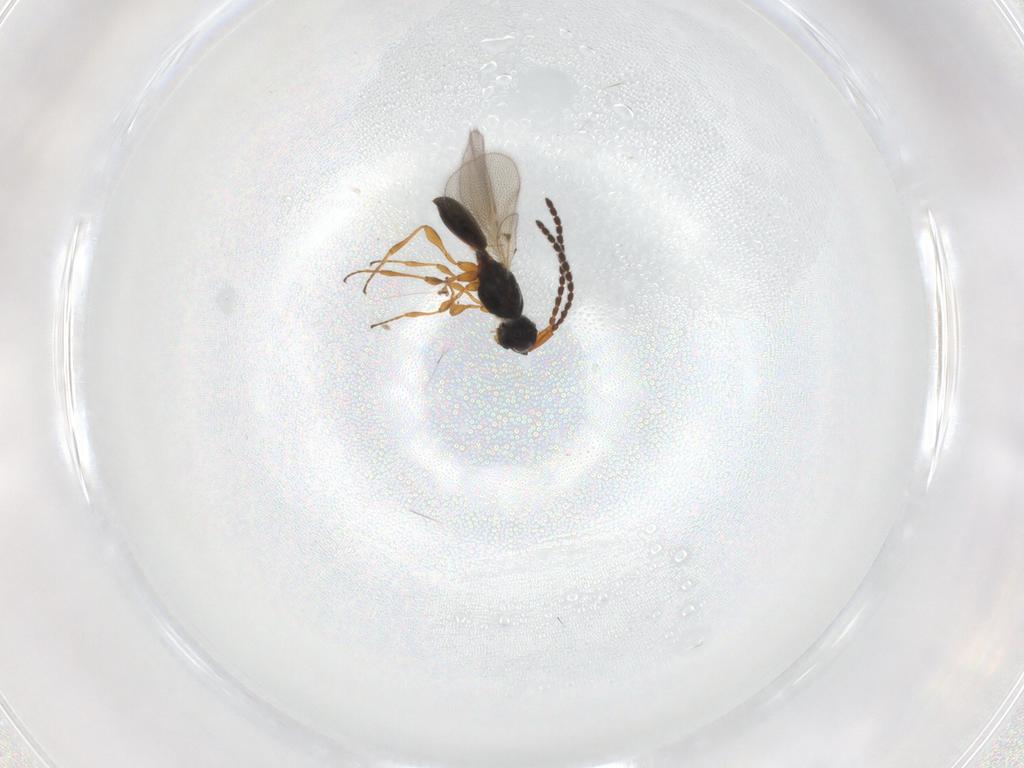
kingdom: Animalia
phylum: Arthropoda
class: Insecta
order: Hymenoptera
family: Diapriidae
